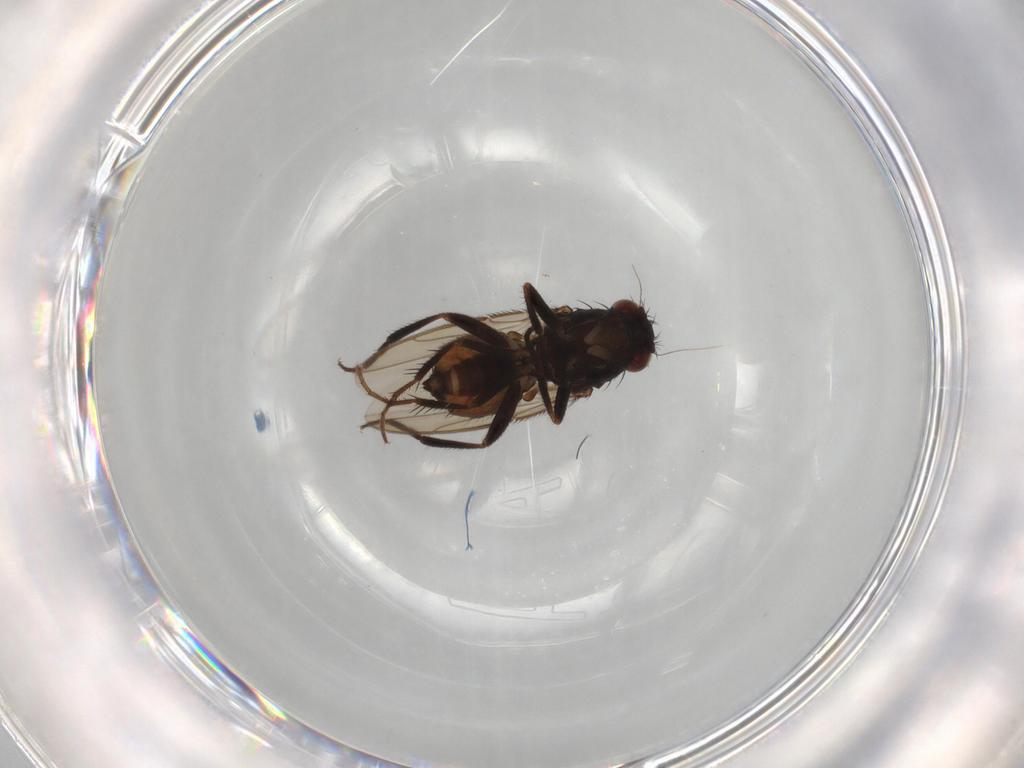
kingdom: Animalia
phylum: Arthropoda
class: Insecta
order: Diptera
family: Sphaeroceridae
